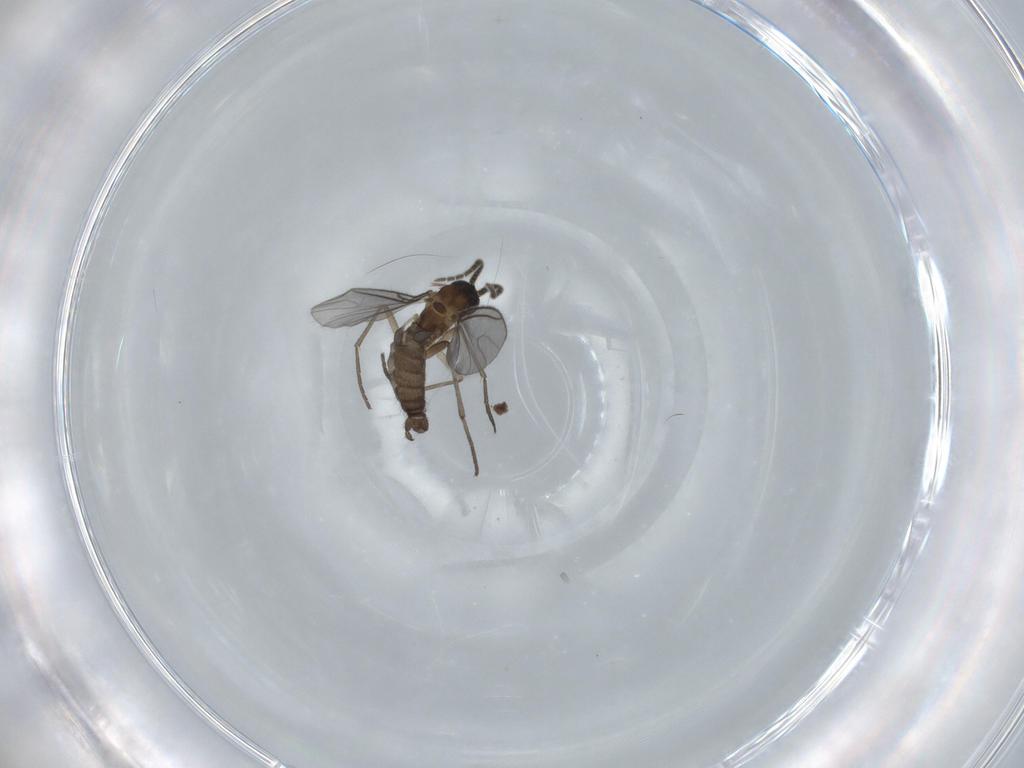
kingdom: Animalia
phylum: Arthropoda
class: Insecta
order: Diptera
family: Sciaridae
